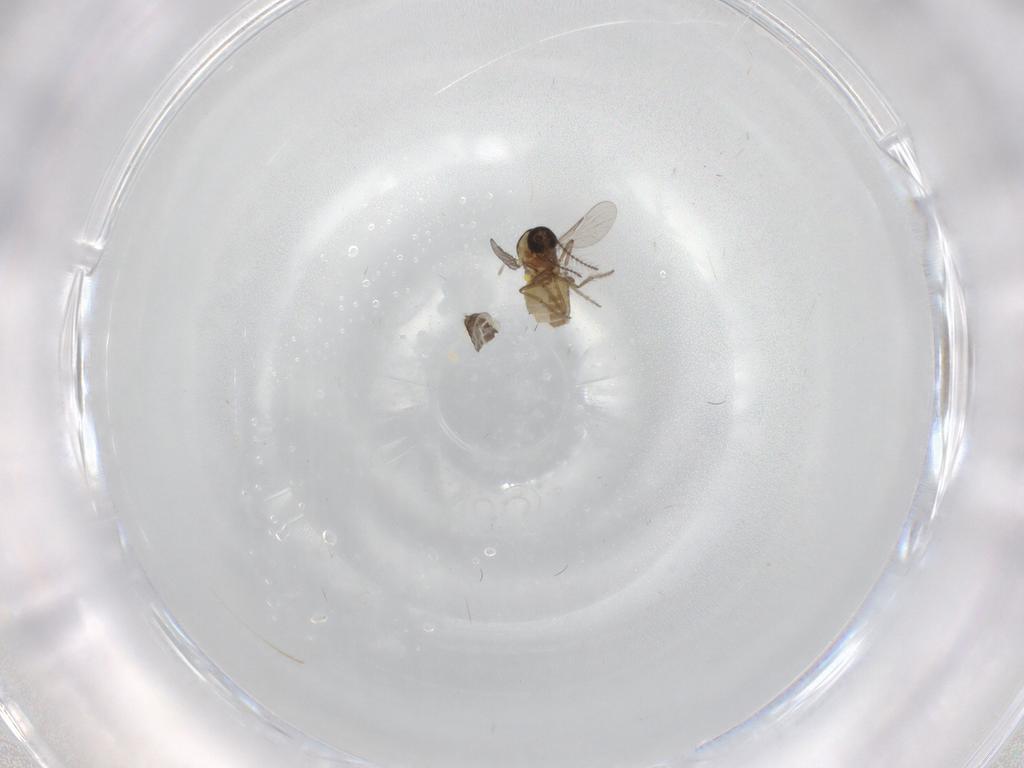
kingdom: Animalia
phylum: Arthropoda
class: Insecta
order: Diptera
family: Ceratopogonidae
